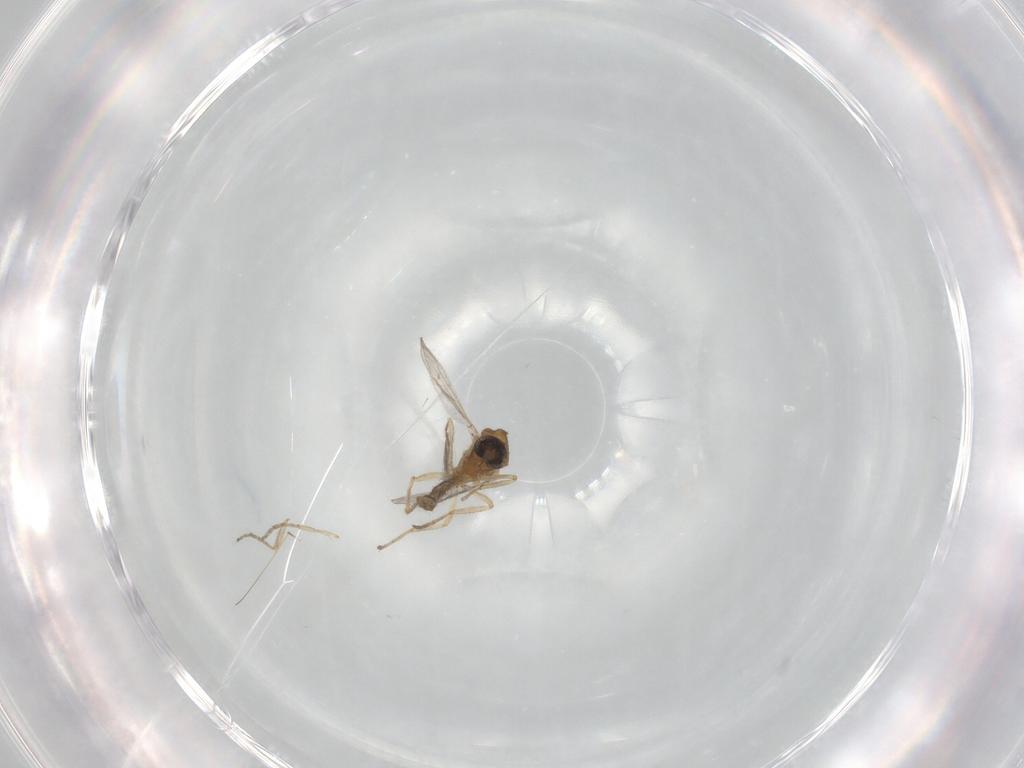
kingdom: Animalia
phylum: Arthropoda
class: Insecta
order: Diptera
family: Ceratopogonidae
